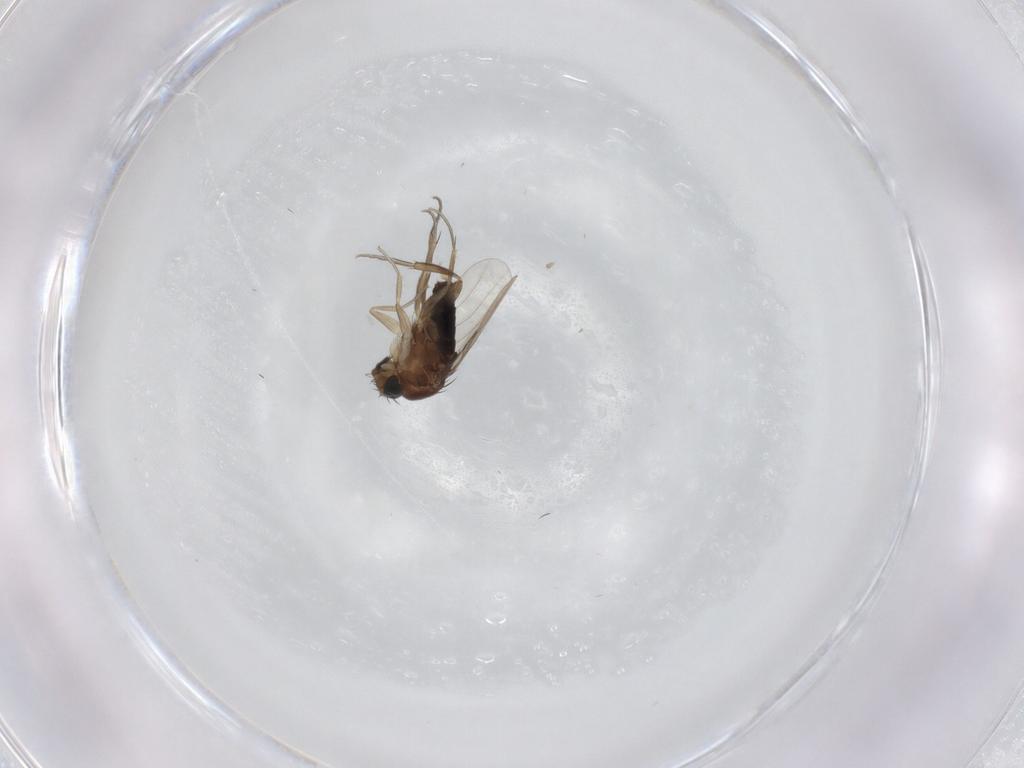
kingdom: Animalia
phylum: Arthropoda
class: Insecta
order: Diptera
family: Phoridae
